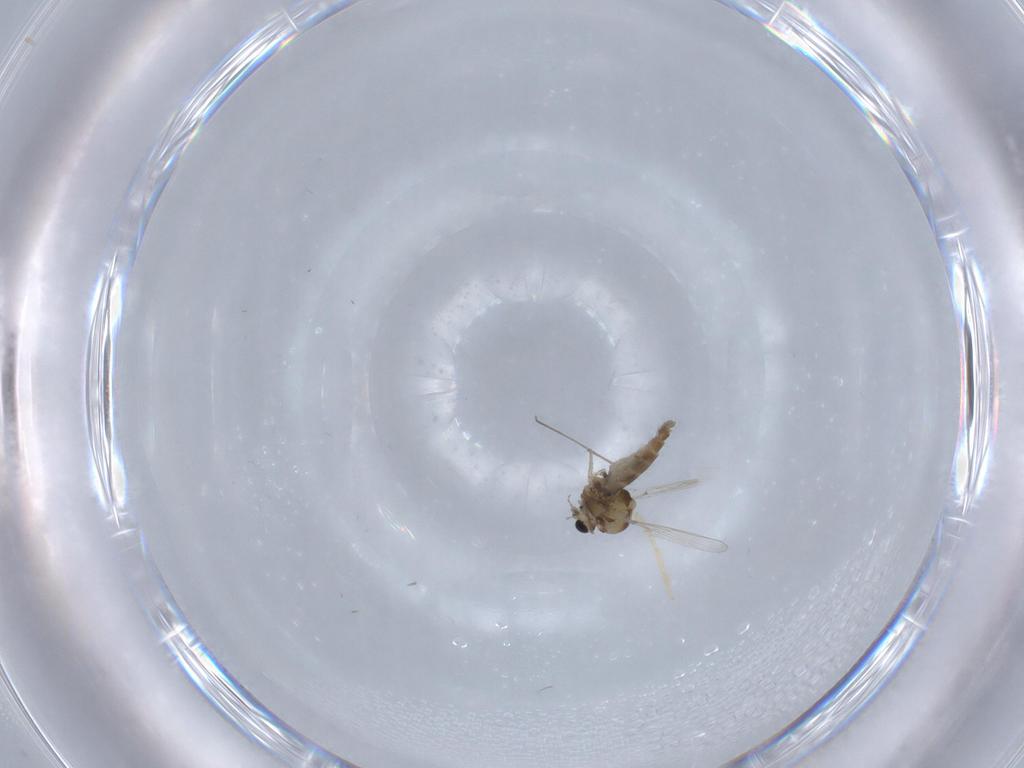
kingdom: Animalia
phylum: Arthropoda
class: Insecta
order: Diptera
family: Chironomidae
